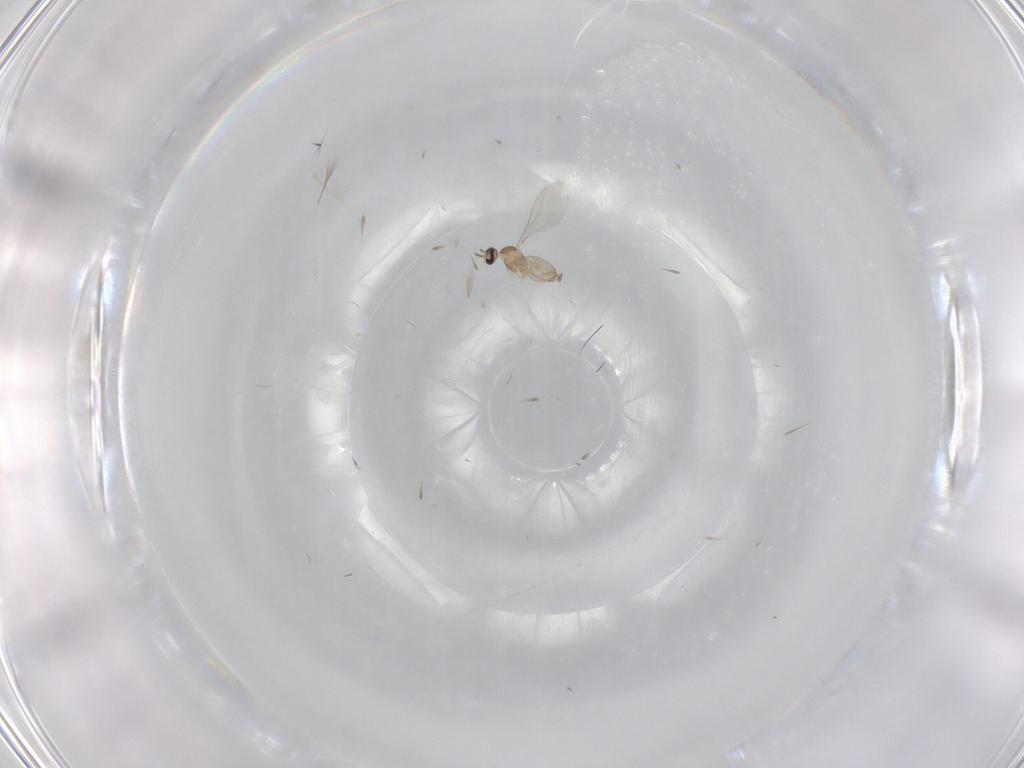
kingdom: Animalia
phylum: Arthropoda
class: Insecta
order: Diptera
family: Cecidomyiidae
